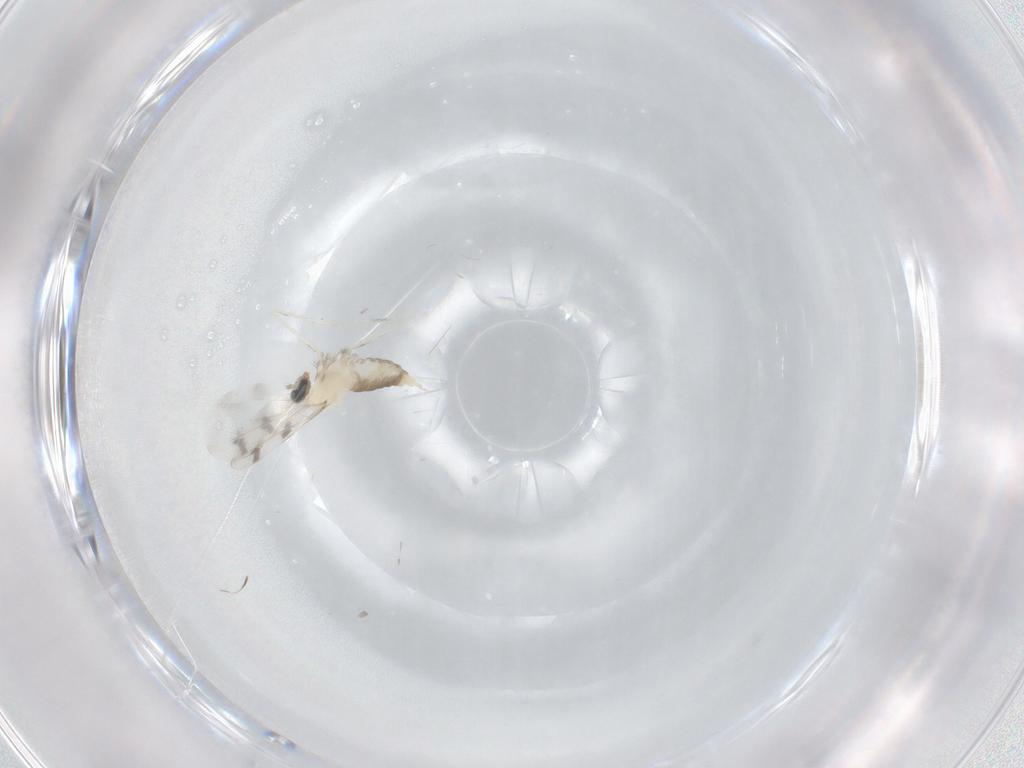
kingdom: Animalia
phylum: Arthropoda
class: Insecta
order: Diptera
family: Cecidomyiidae
